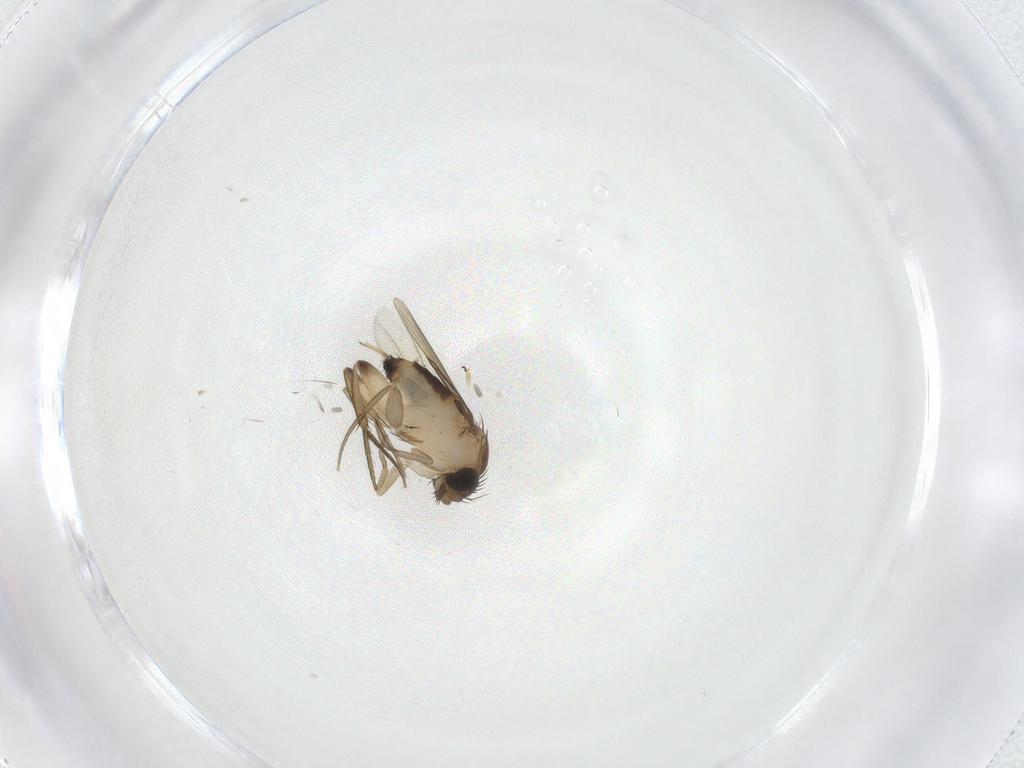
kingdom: Animalia
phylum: Arthropoda
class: Insecta
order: Diptera
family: Phoridae
